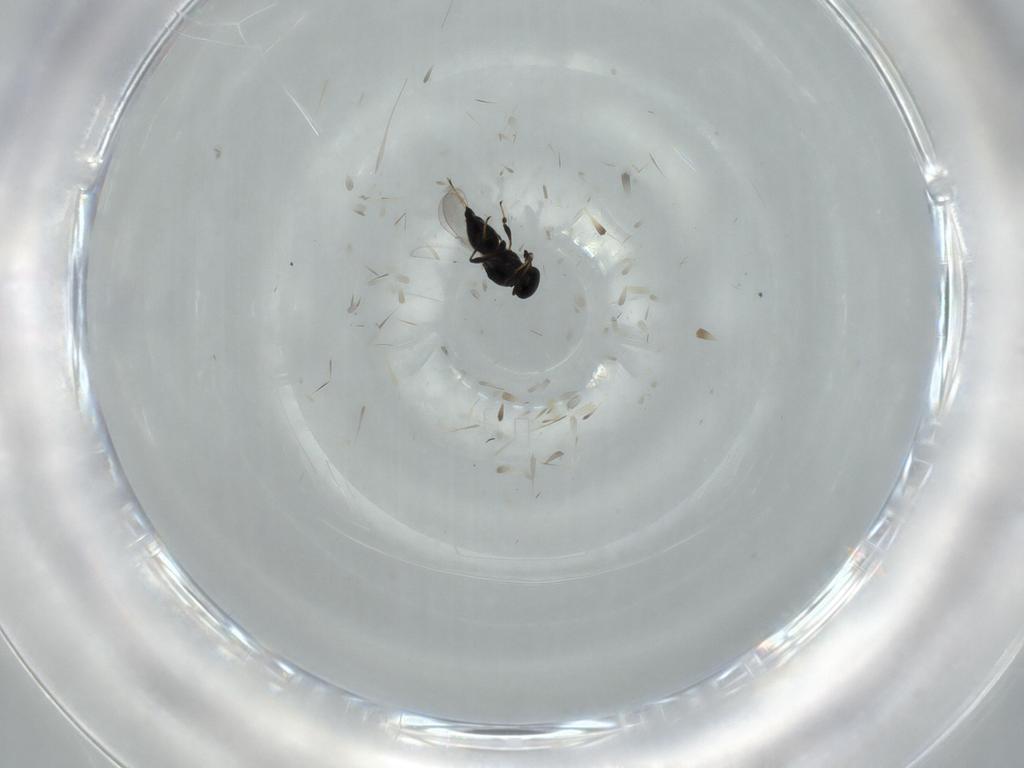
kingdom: Animalia
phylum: Arthropoda
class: Insecta
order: Hymenoptera
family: Platygastridae
